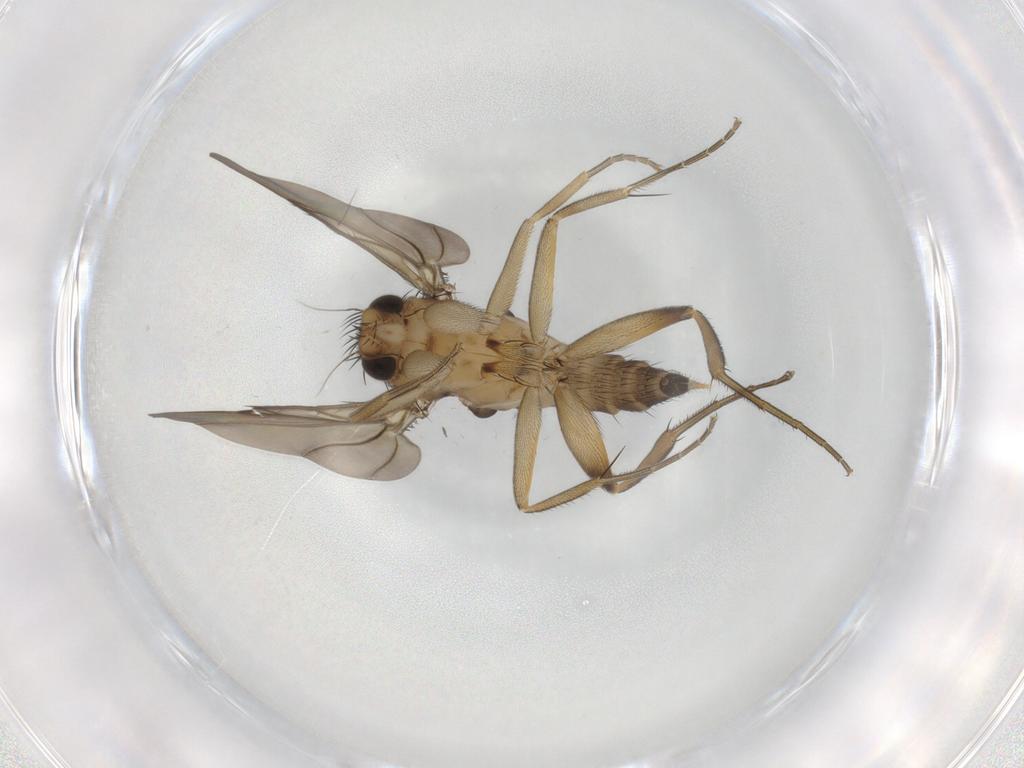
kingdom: Animalia
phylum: Arthropoda
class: Insecta
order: Diptera
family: Phoridae
